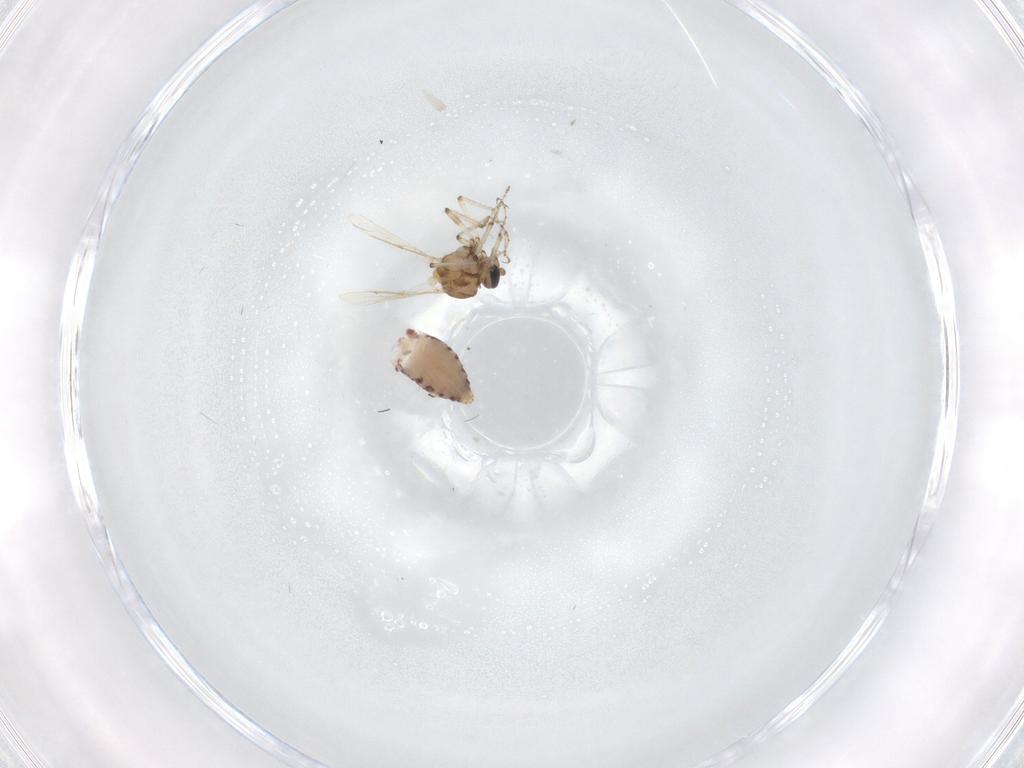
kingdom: Animalia
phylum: Arthropoda
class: Insecta
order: Diptera
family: Ceratopogonidae
